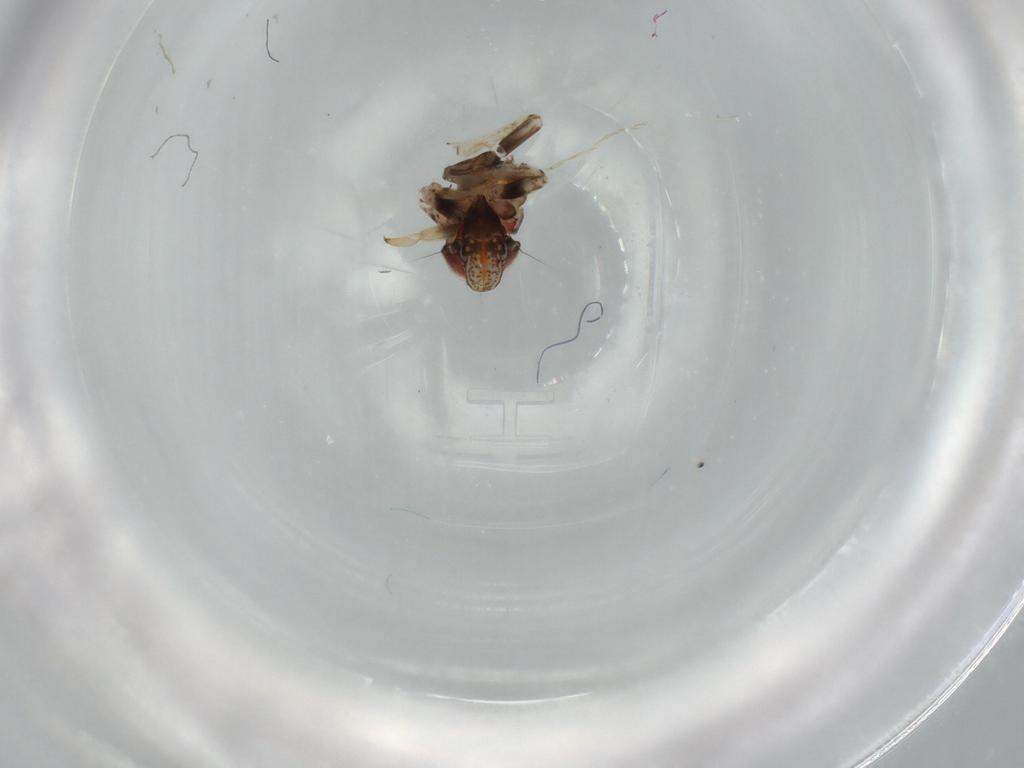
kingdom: Animalia
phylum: Arthropoda
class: Insecta
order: Hemiptera
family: Issidae
